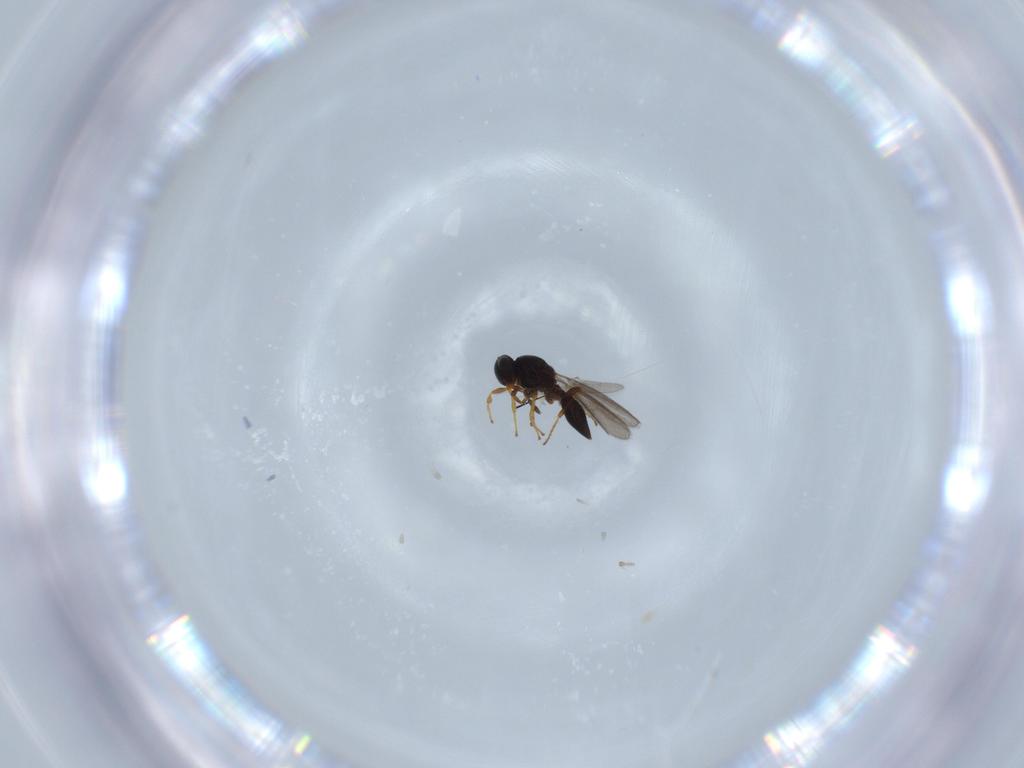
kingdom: Animalia
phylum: Arthropoda
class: Insecta
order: Hymenoptera
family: Platygastridae
